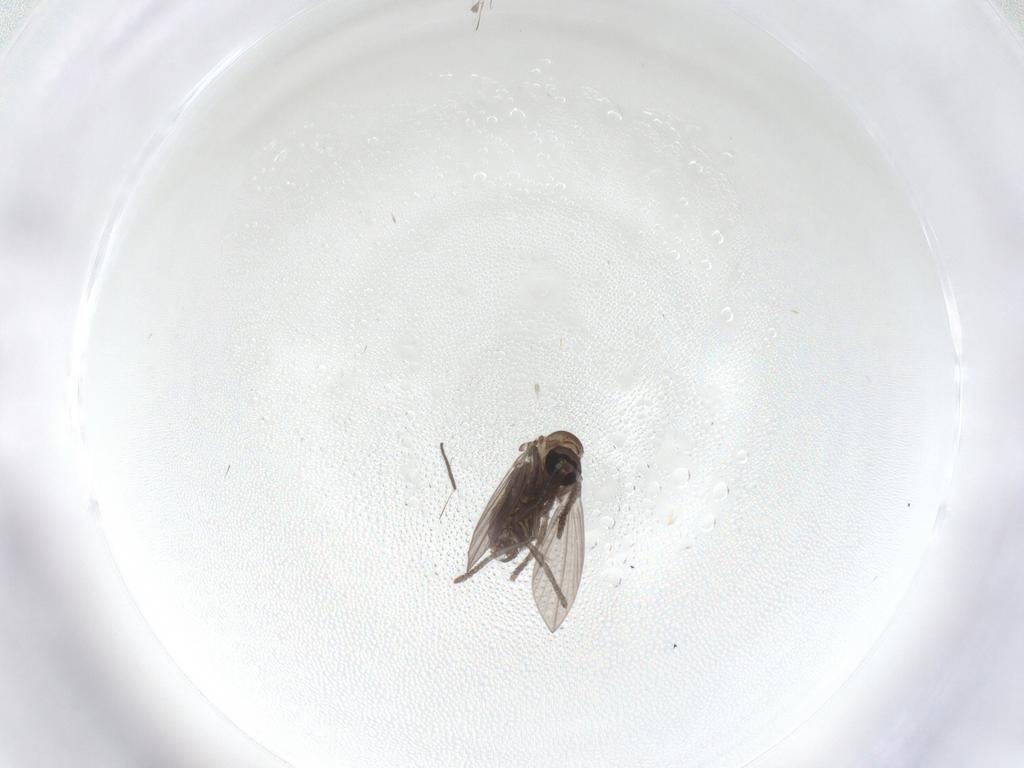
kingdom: Animalia
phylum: Arthropoda
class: Insecta
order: Diptera
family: Psychodidae
